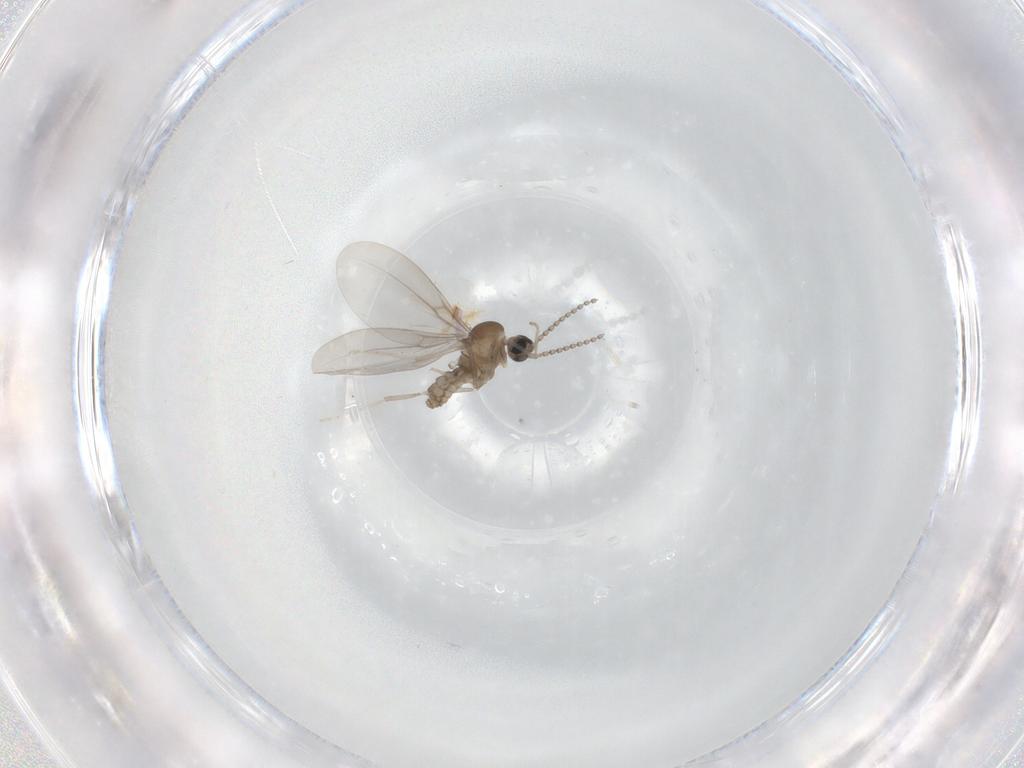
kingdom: Animalia
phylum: Arthropoda
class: Insecta
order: Diptera
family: Cecidomyiidae
